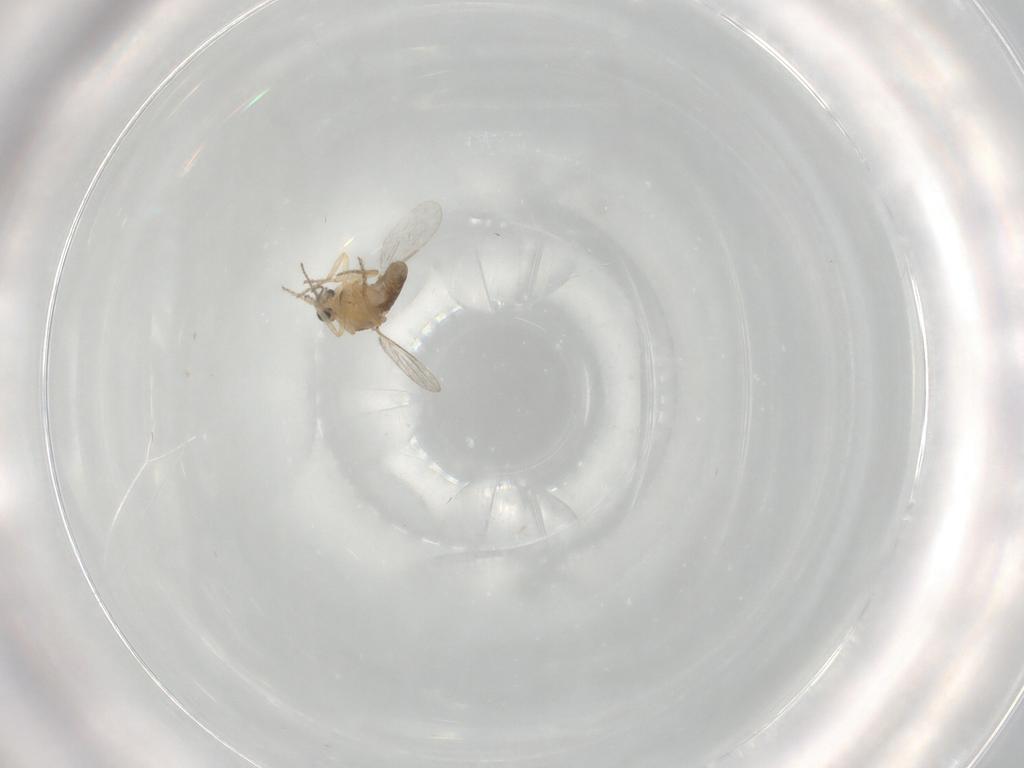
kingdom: Animalia
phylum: Arthropoda
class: Insecta
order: Diptera
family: Ceratopogonidae
